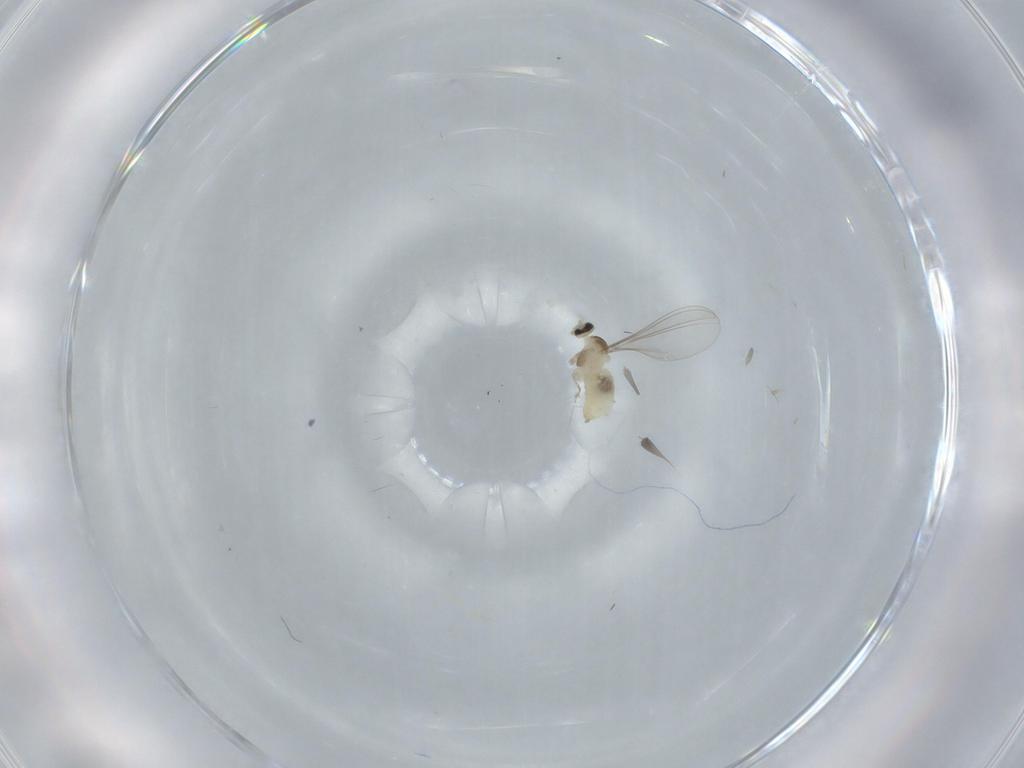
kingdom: Animalia
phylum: Arthropoda
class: Insecta
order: Diptera
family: Cecidomyiidae
